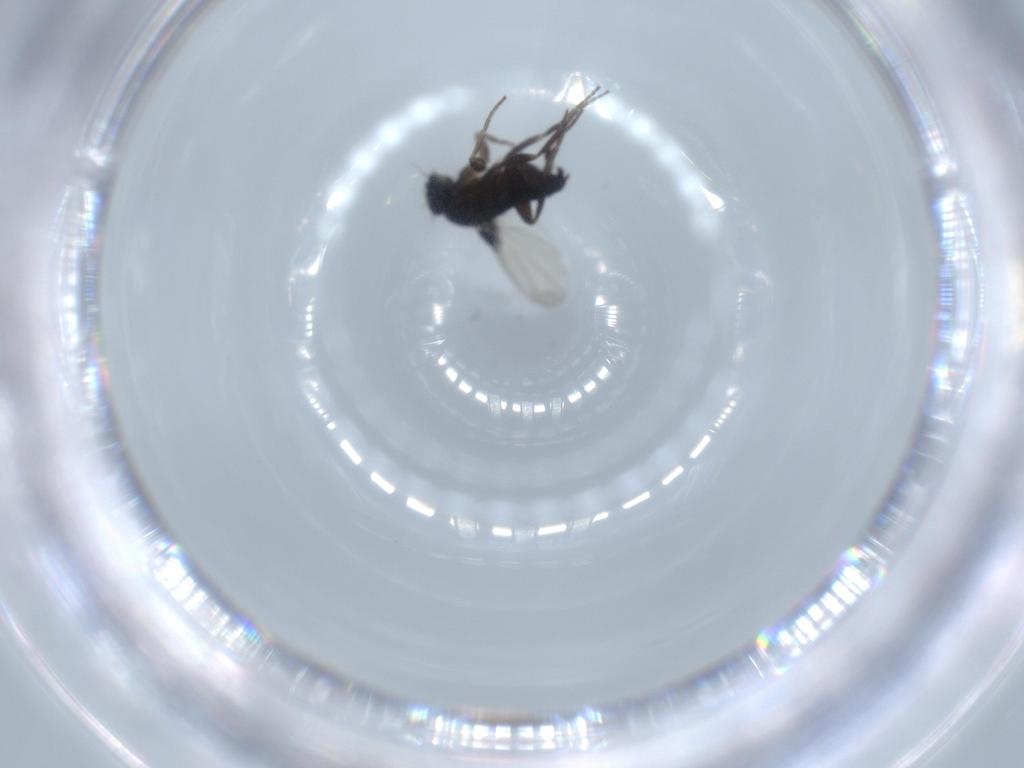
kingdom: Animalia
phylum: Arthropoda
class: Insecta
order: Diptera
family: Phoridae
